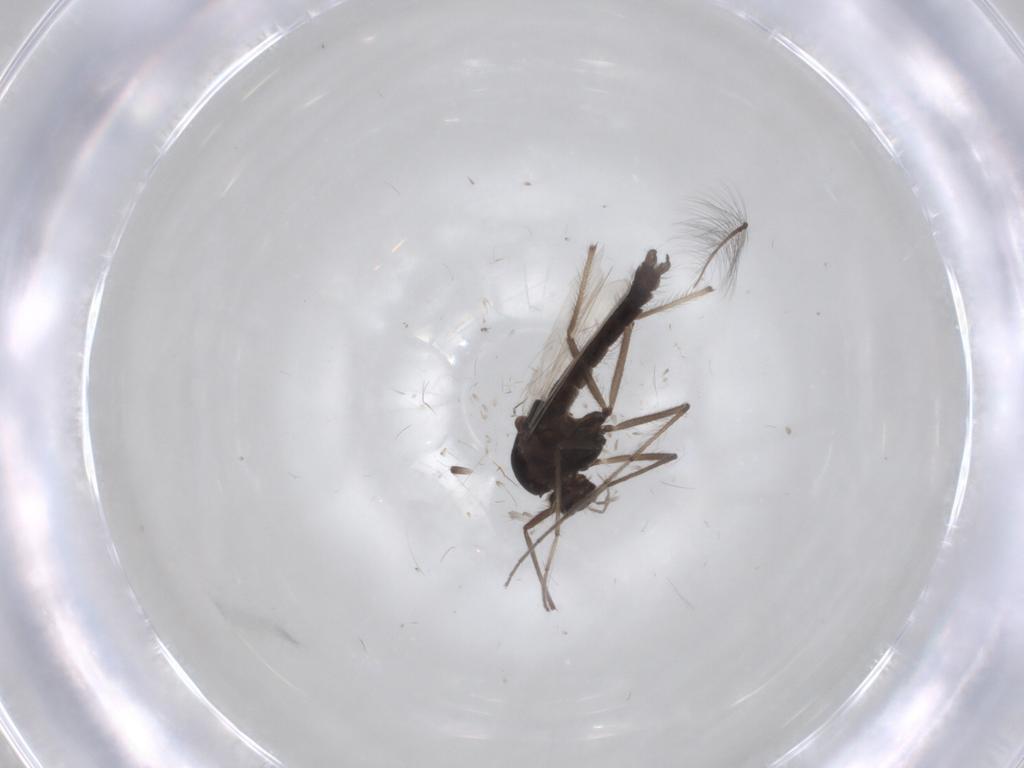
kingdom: Animalia
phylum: Arthropoda
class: Insecta
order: Diptera
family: Chironomidae
